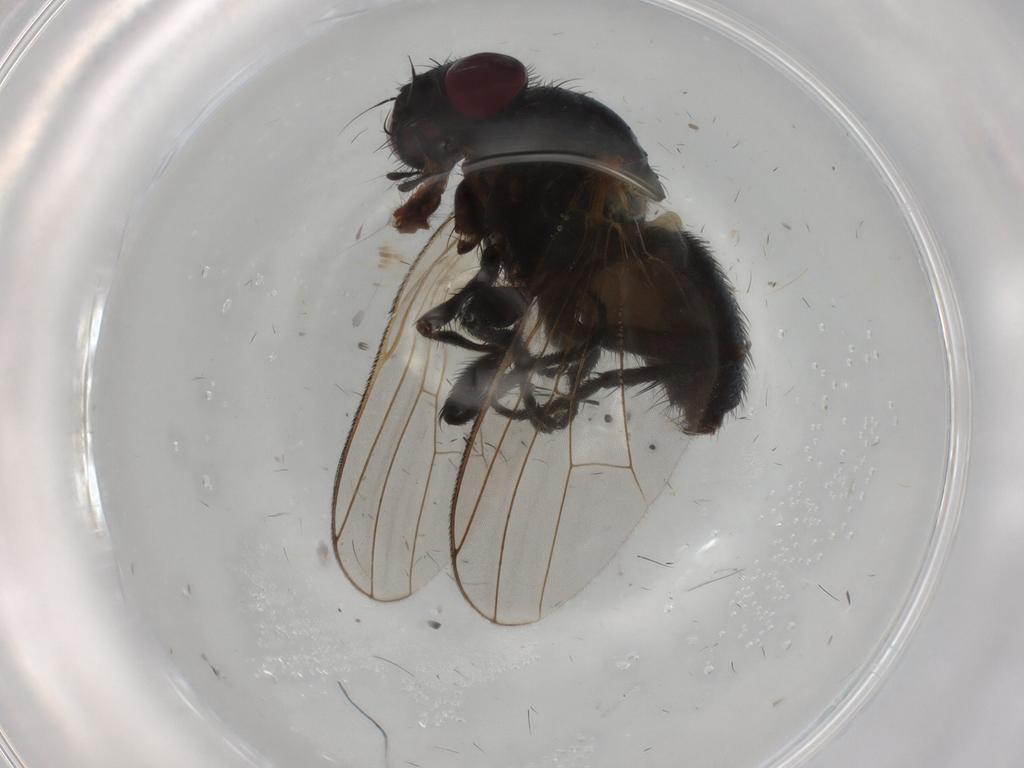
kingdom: Animalia
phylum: Arthropoda
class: Insecta
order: Diptera
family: Fannia
